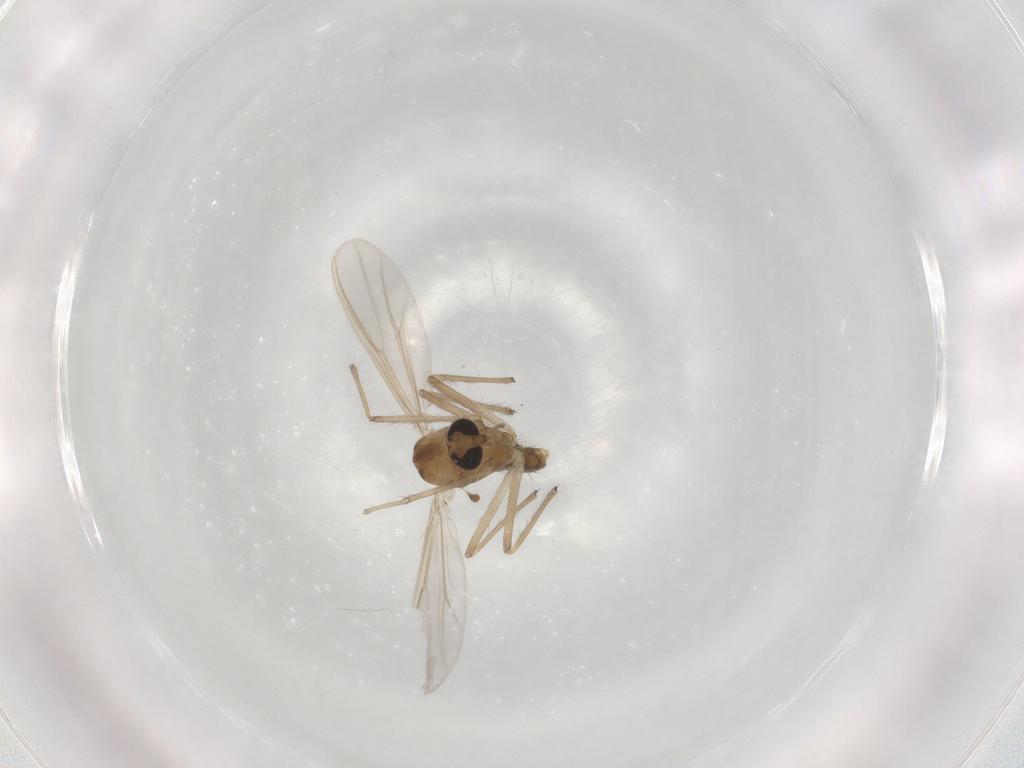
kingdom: Animalia
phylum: Arthropoda
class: Insecta
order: Diptera
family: Chironomidae
